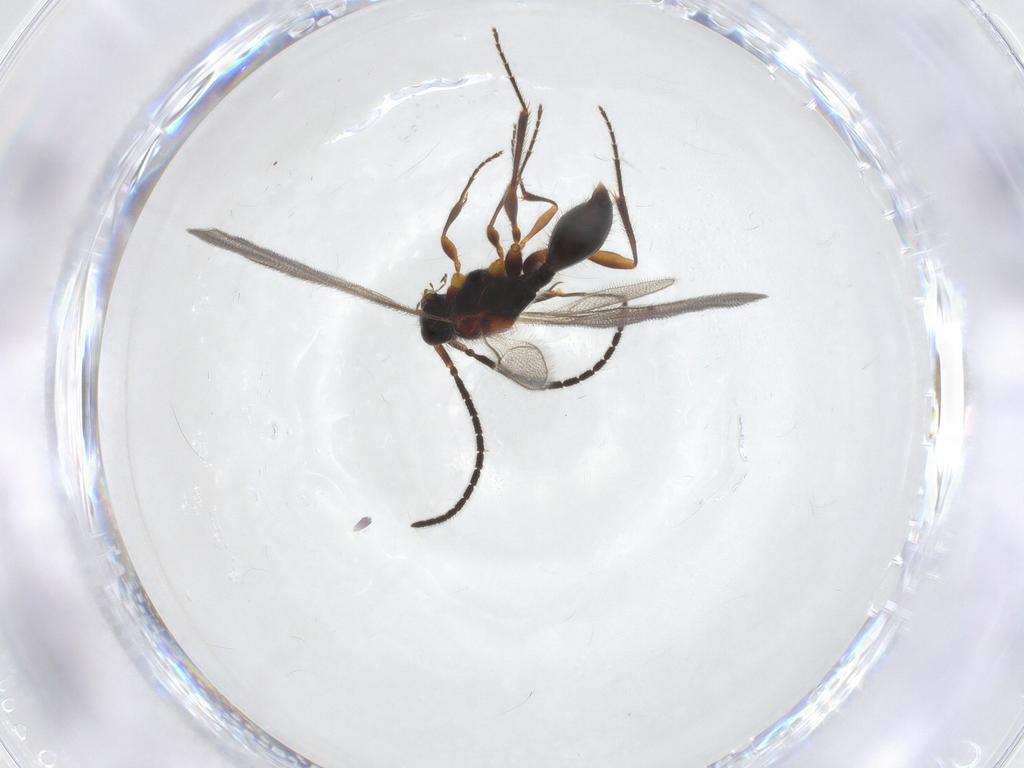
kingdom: Animalia
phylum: Arthropoda
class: Insecta
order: Hymenoptera
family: Diapriidae
